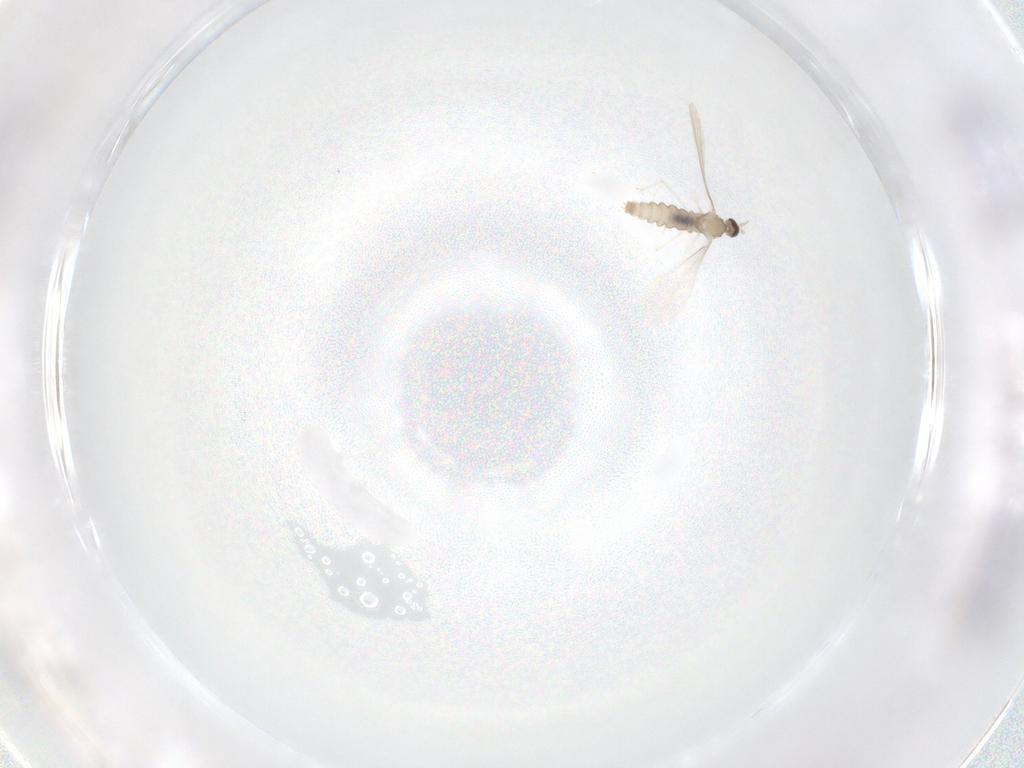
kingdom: Animalia
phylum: Arthropoda
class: Insecta
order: Diptera
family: Cecidomyiidae
